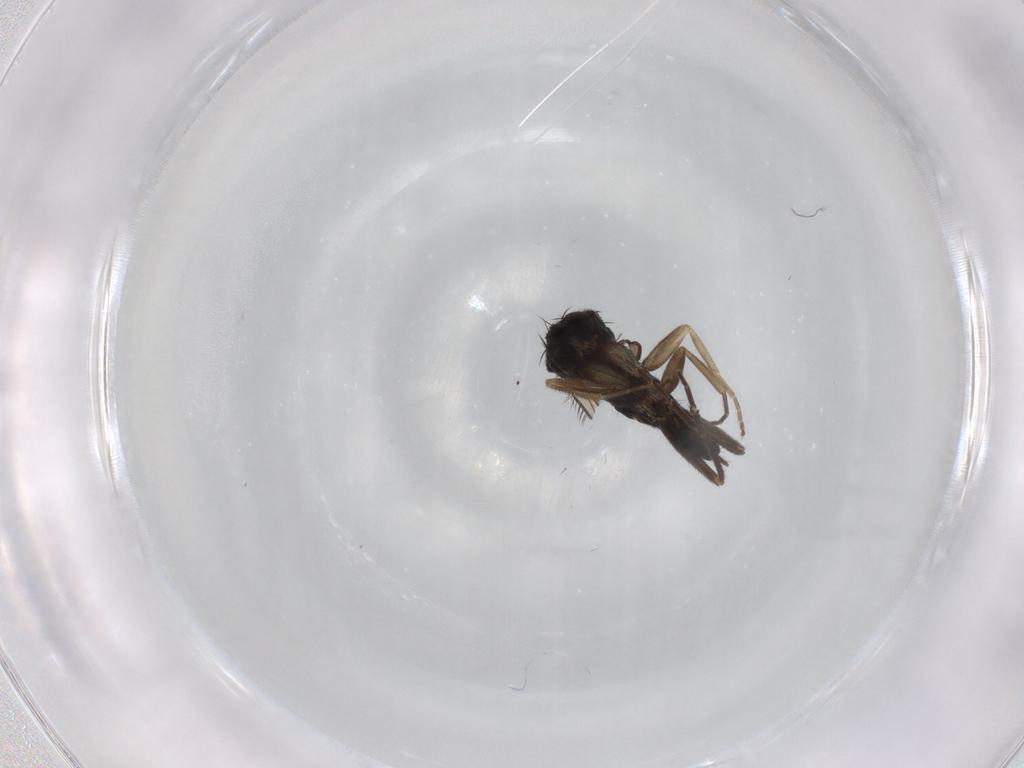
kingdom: Animalia
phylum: Arthropoda
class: Insecta
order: Diptera
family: Phoridae
